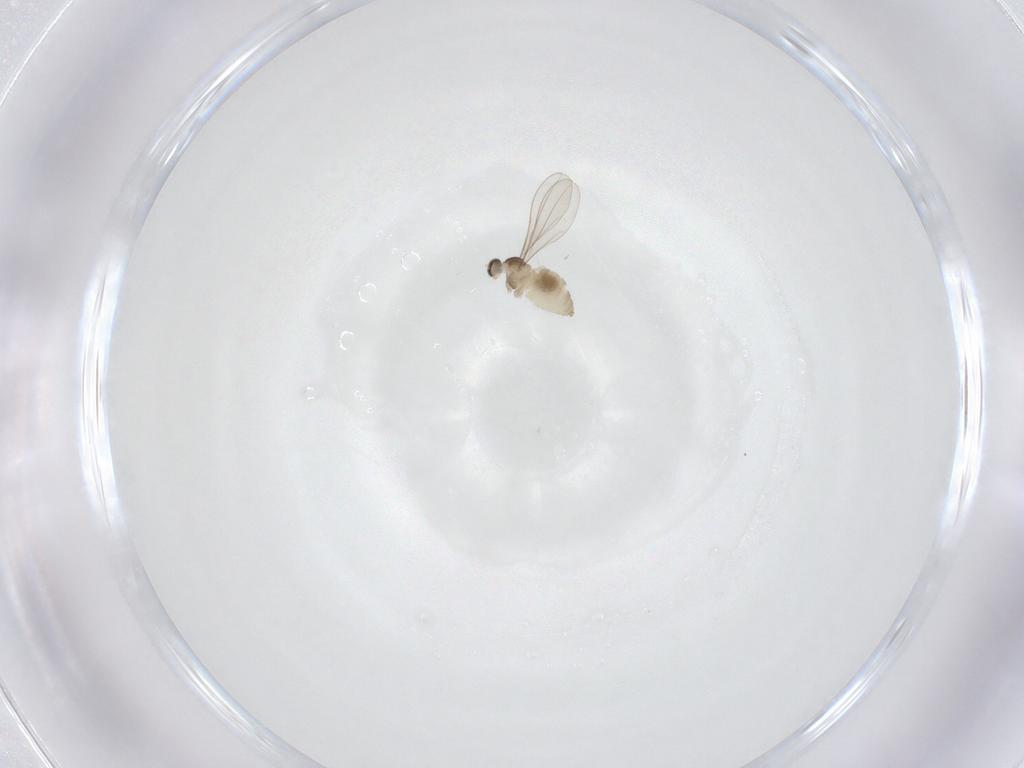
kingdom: Animalia
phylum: Arthropoda
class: Insecta
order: Diptera
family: Cecidomyiidae
